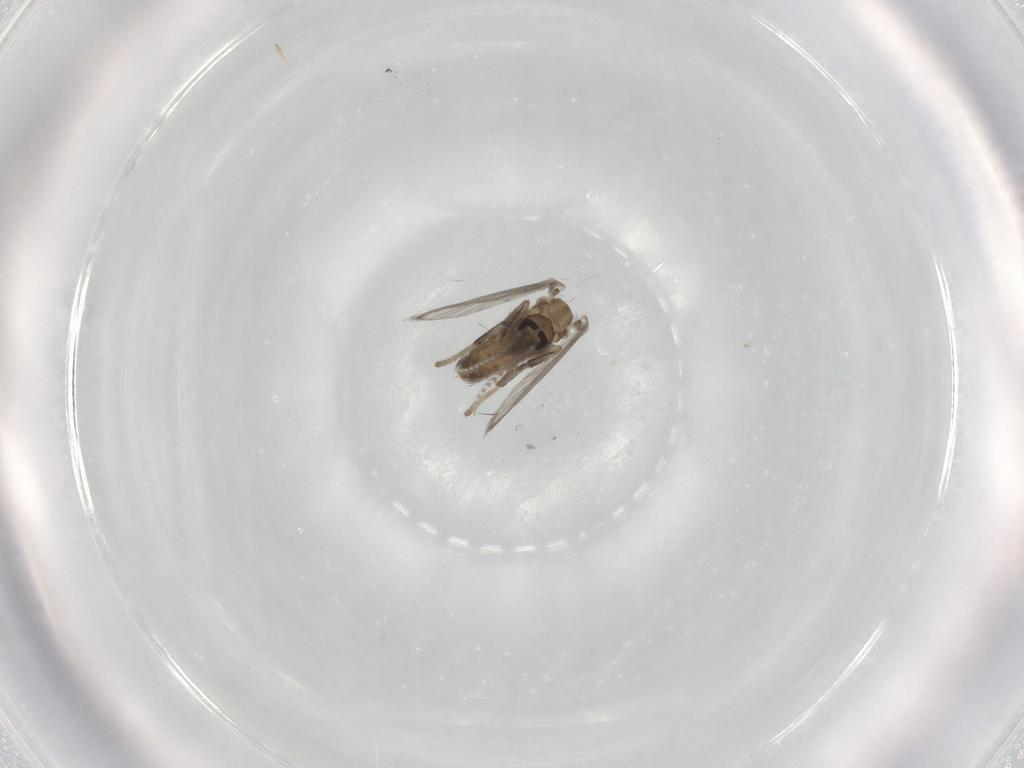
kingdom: Animalia
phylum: Arthropoda
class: Insecta
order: Diptera
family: Psychodidae
